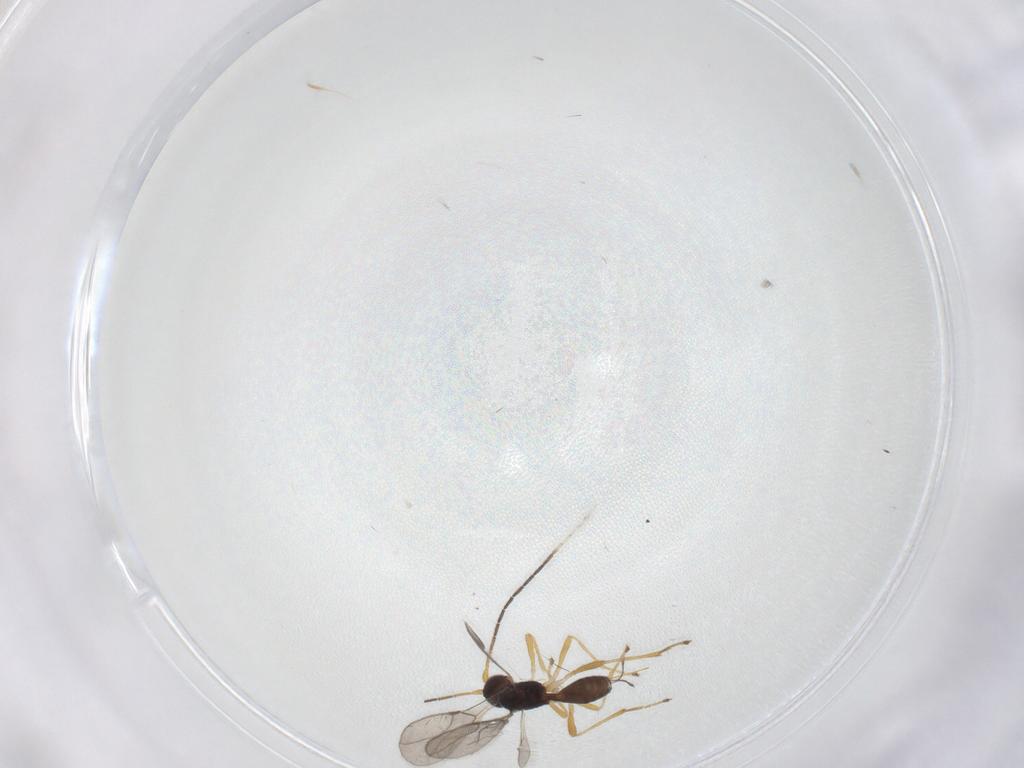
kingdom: Animalia
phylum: Arthropoda
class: Insecta
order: Hymenoptera
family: Braconidae
